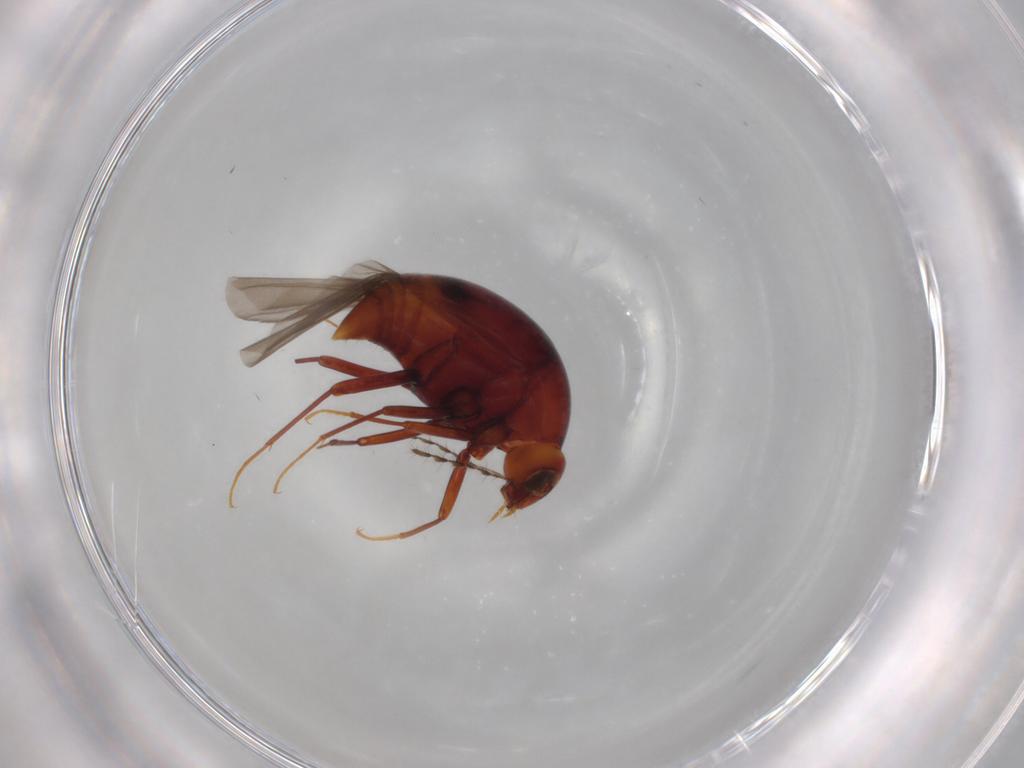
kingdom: Animalia
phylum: Arthropoda
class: Insecta
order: Coleoptera
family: Staphylinidae
